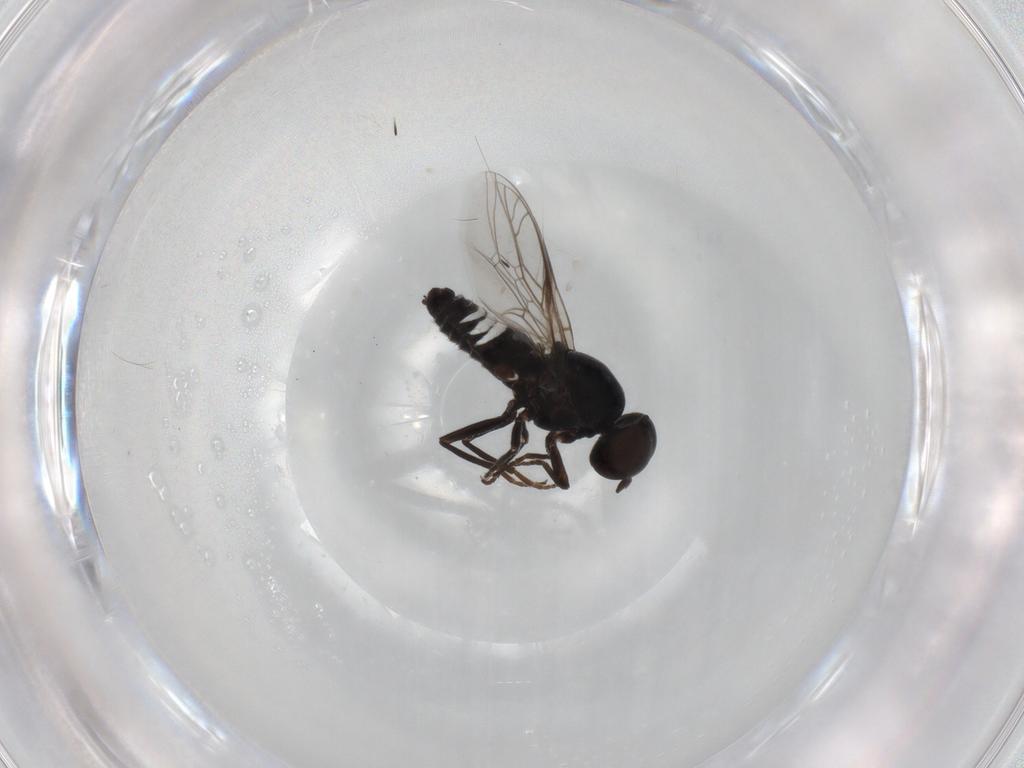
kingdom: Animalia
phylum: Arthropoda
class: Insecta
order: Diptera
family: Scenopinidae
